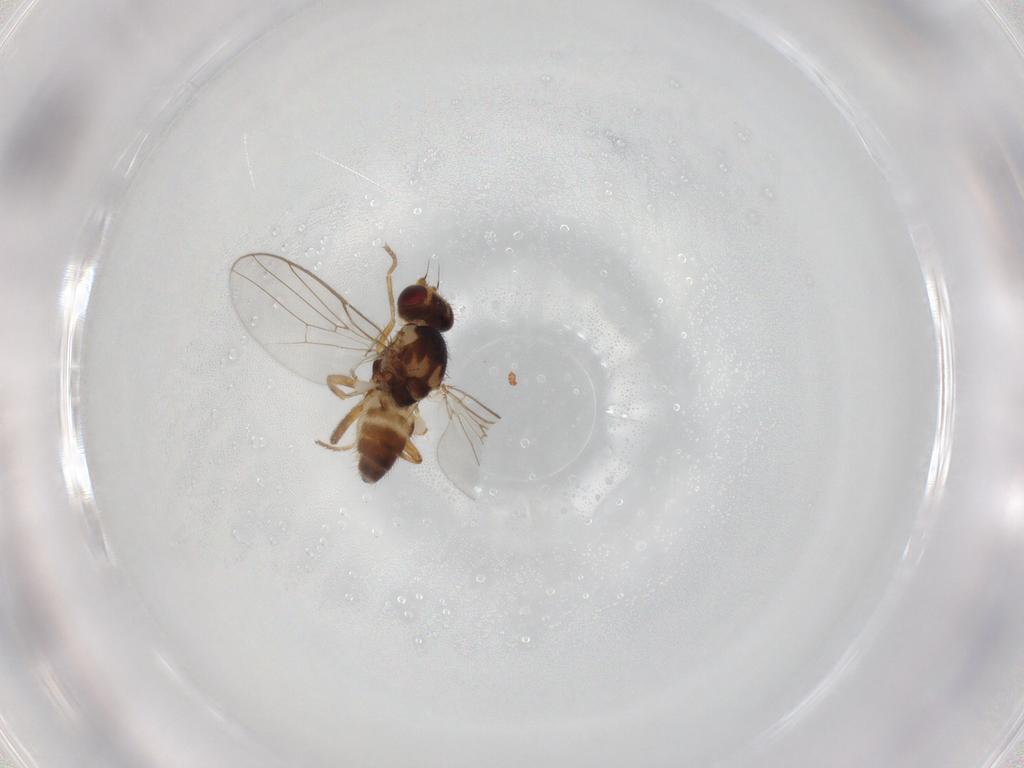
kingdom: Animalia
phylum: Arthropoda
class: Insecta
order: Diptera
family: Chloropidae
